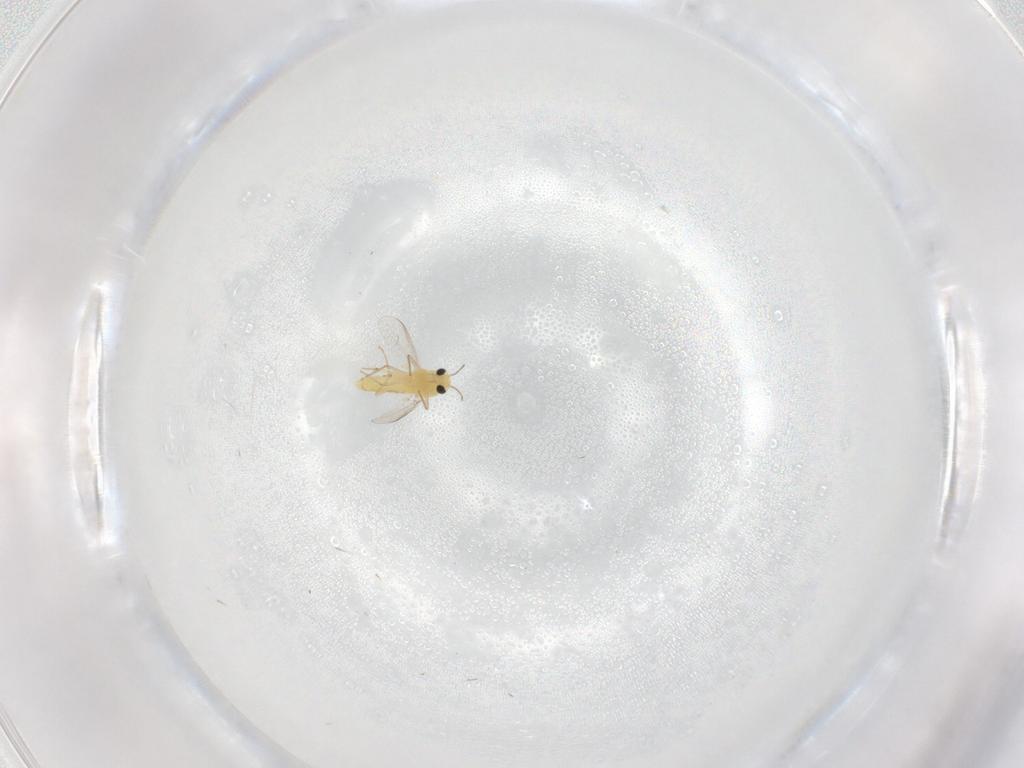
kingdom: Animalia
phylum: Arthropoda
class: Insecta
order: Diptera
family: Chironomidae
